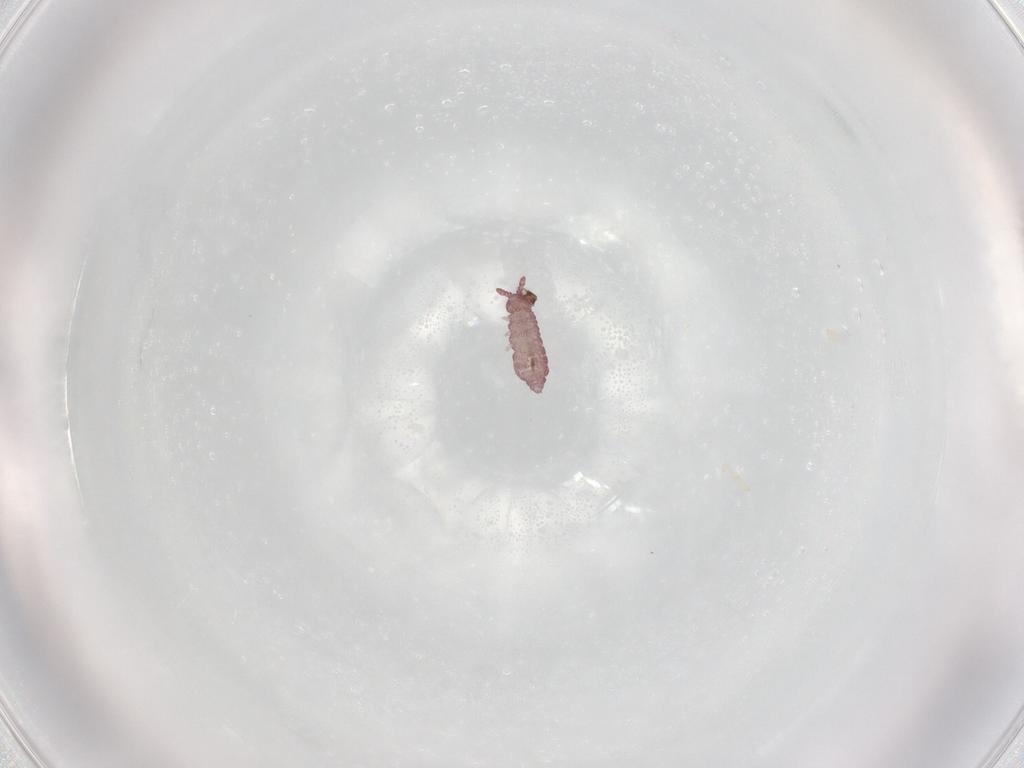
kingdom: Animalia
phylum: Arthropoda
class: Collembola
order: Poduromorpha
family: Hypogastruridae
